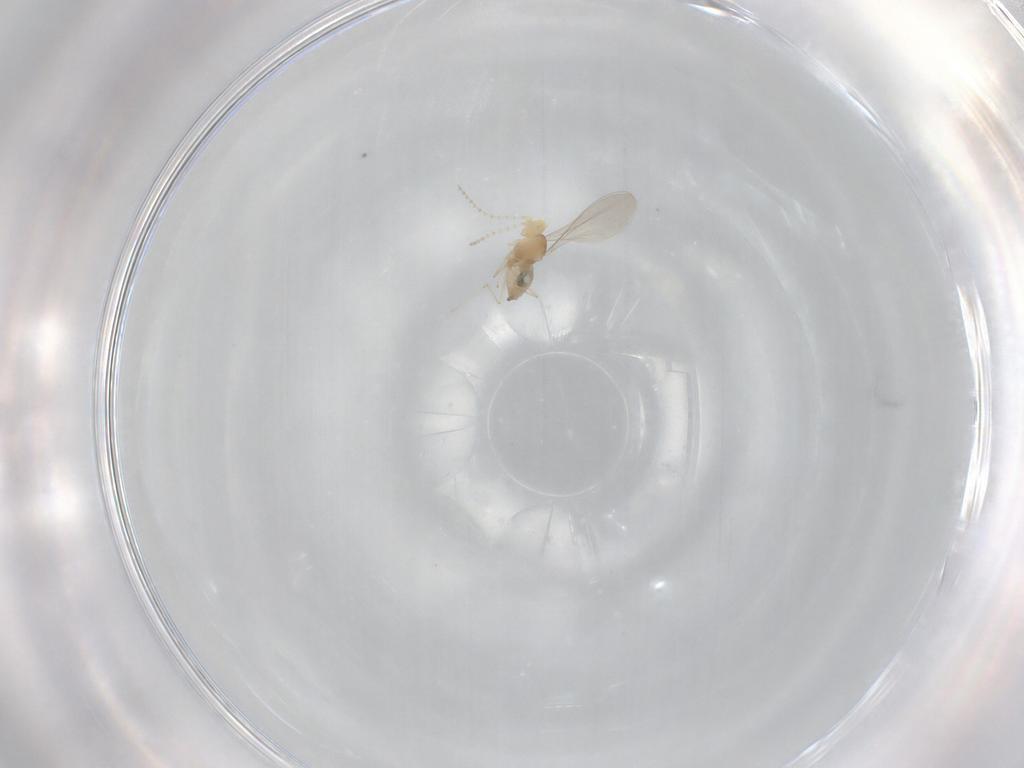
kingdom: Animalia
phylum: Arthropoda
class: Insecta
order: Diptera
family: Cecidomyiidae
